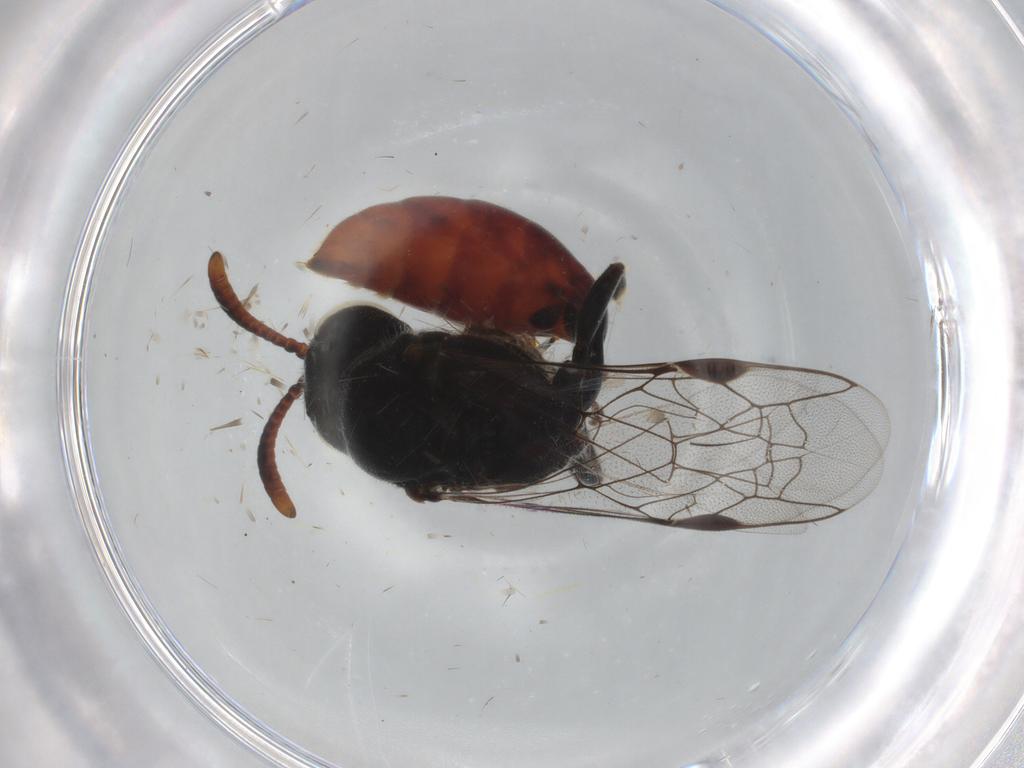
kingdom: Animalia
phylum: Arthropoda
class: Insecta
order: Hymenoptera
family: Psenidae
